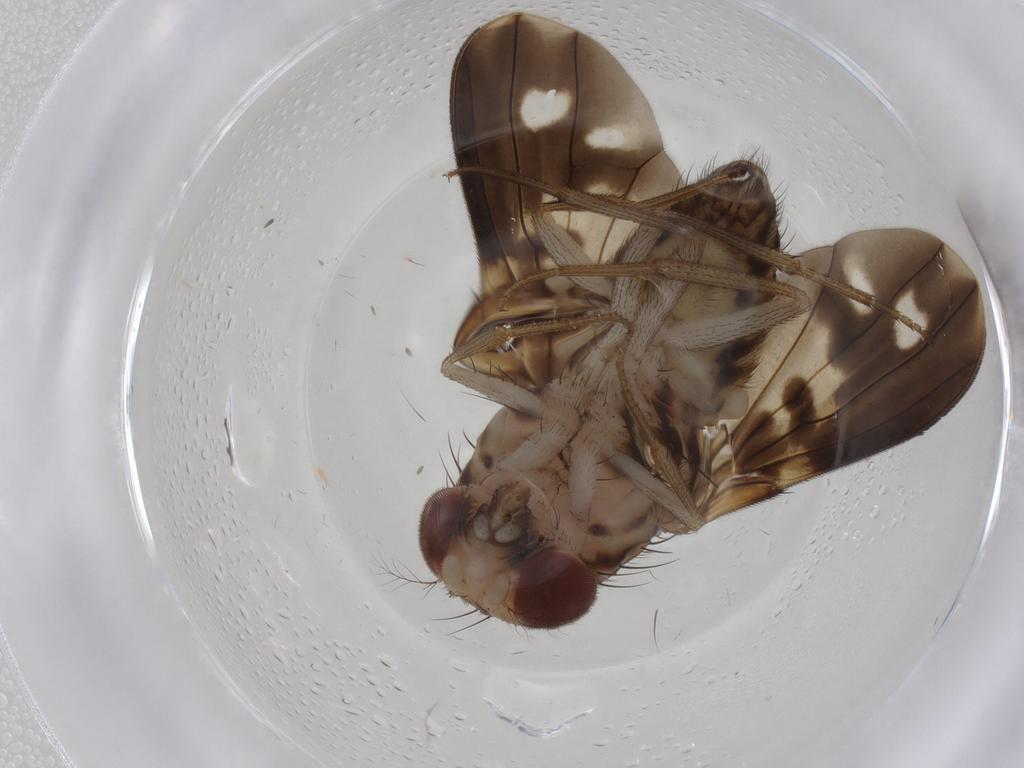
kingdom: Animalia
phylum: Arthropoda
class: Insecta
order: Diptera
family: Drosophilidae
